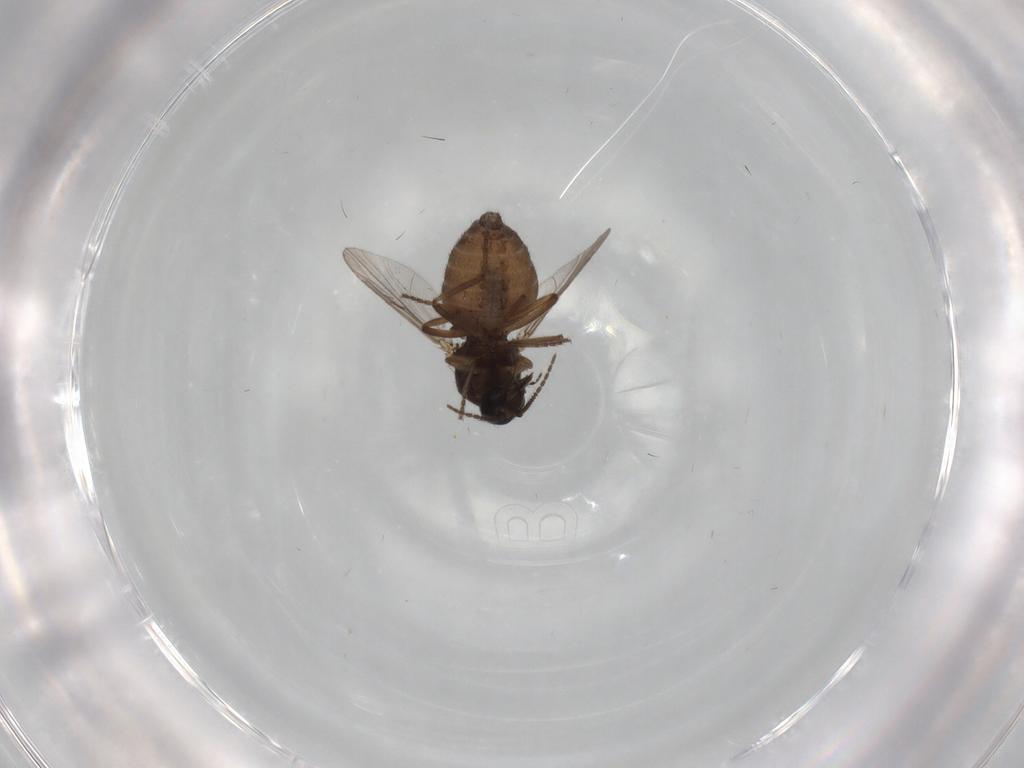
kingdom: Animalia
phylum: Arthropoda
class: Insecta
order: Diptera
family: Ceratopogonidae
